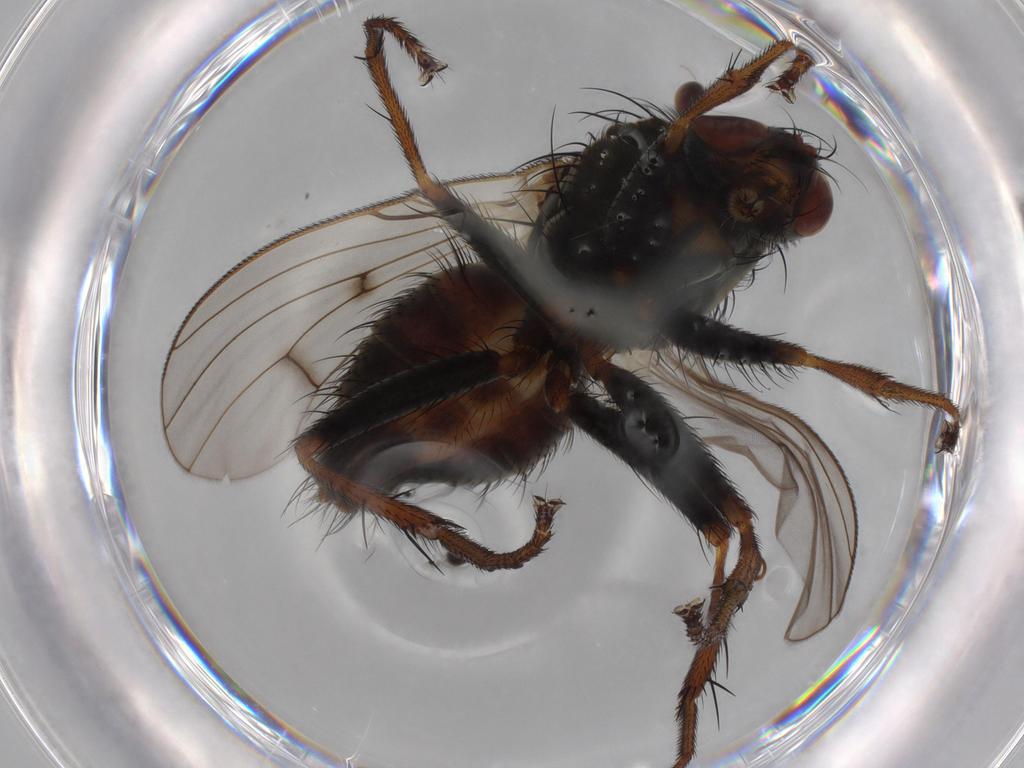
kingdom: Animalia
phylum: Arthropoda
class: Insecta
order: Diptera
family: Muscidae
